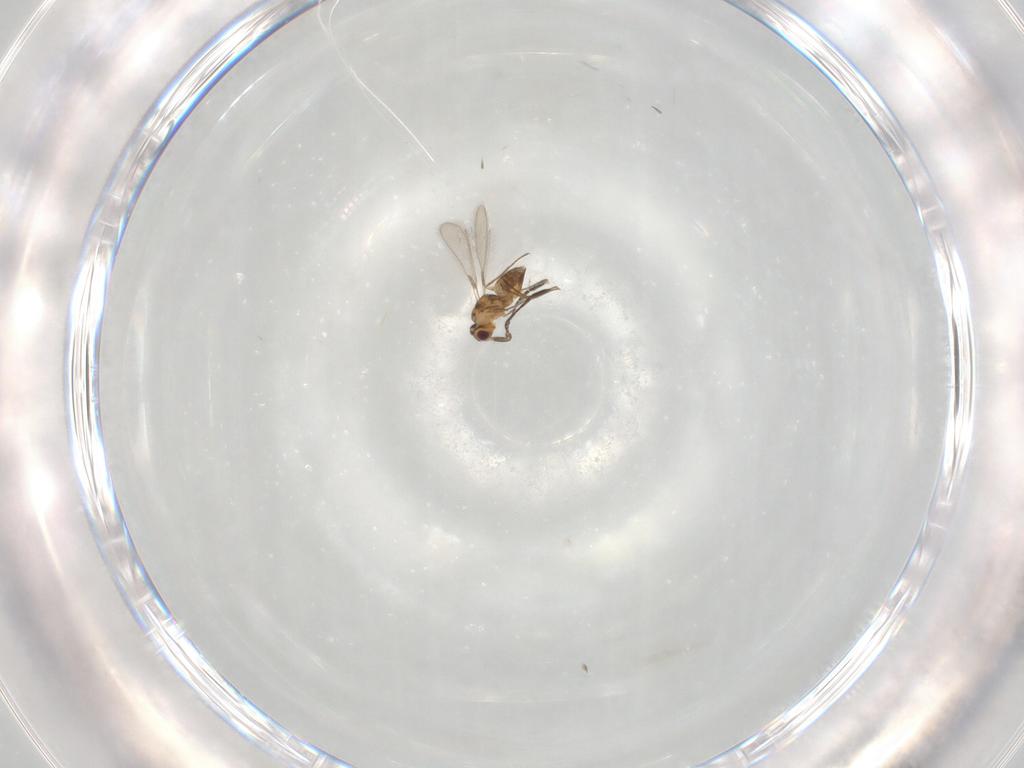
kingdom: Animalia
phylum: Arthropoda
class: Insecta
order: Hymenoptera
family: Mymaridae
